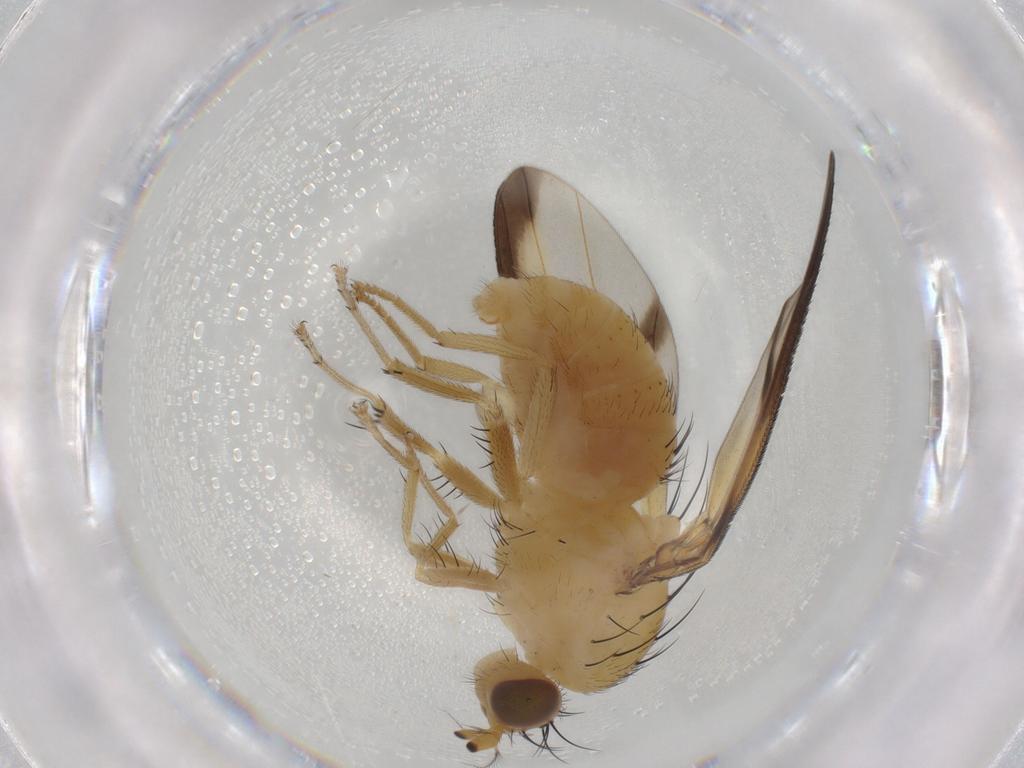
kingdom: Animalia
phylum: Arthropoda
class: Insecta
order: Diptera
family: Lauxaniidae
